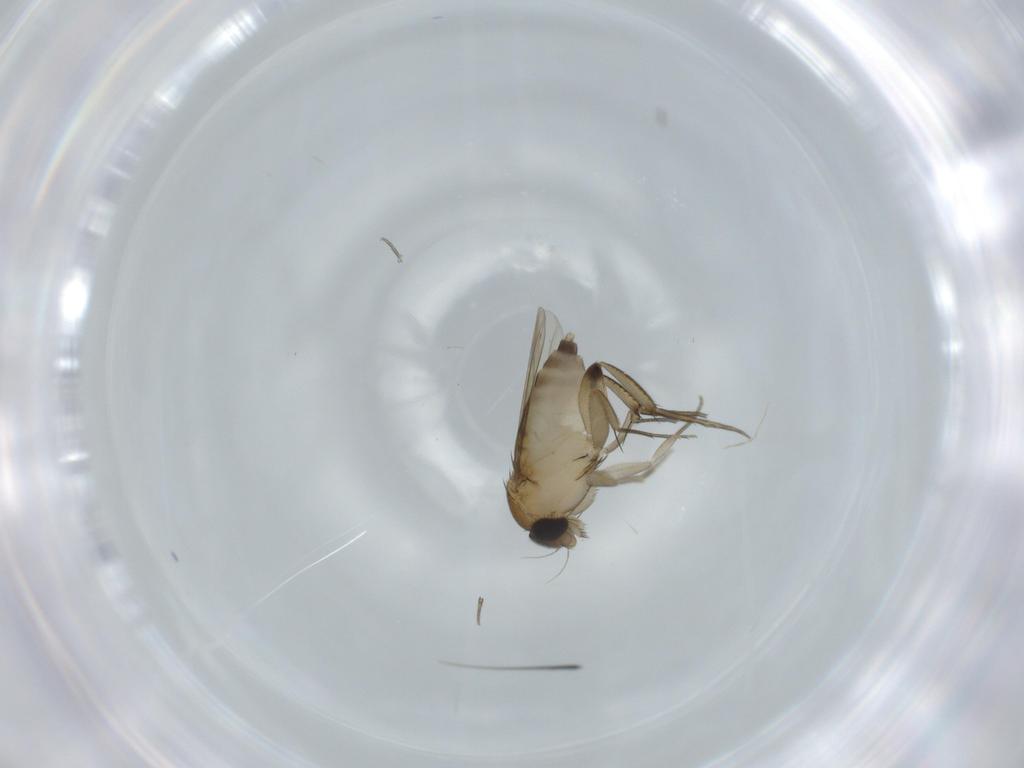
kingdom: Animalia
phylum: Arthropoda
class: Insecta
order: Diptera
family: Phoridae
